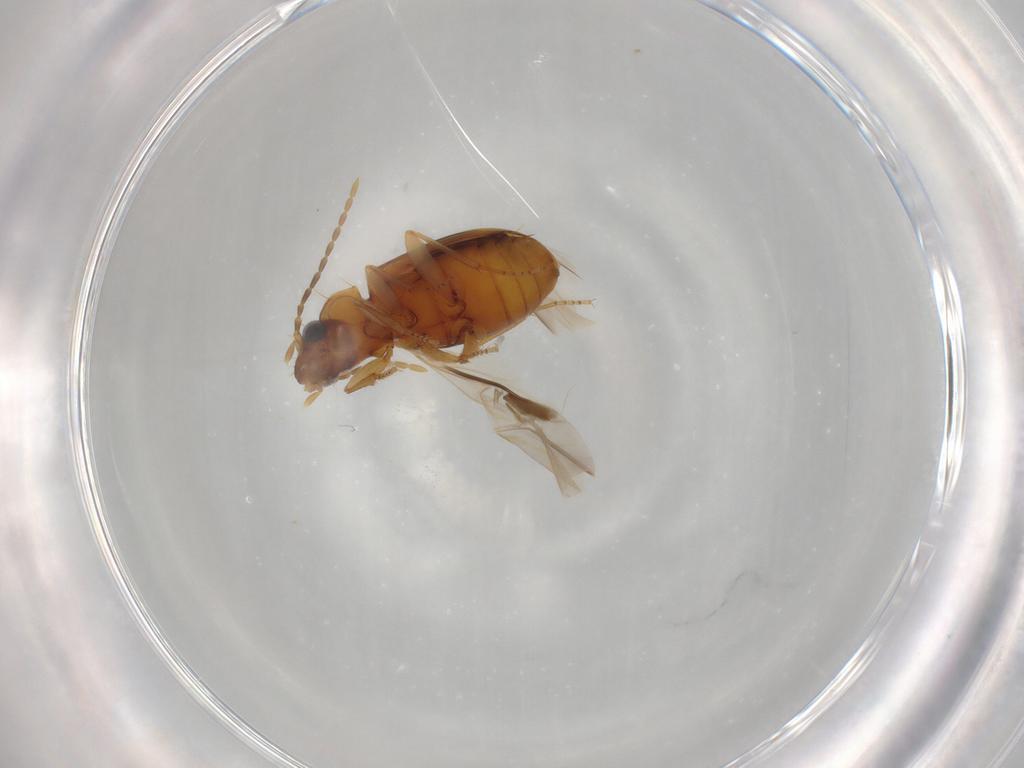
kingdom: Animalia
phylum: Arthropoda
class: Insecta
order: Coleoptera
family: Carabidae
